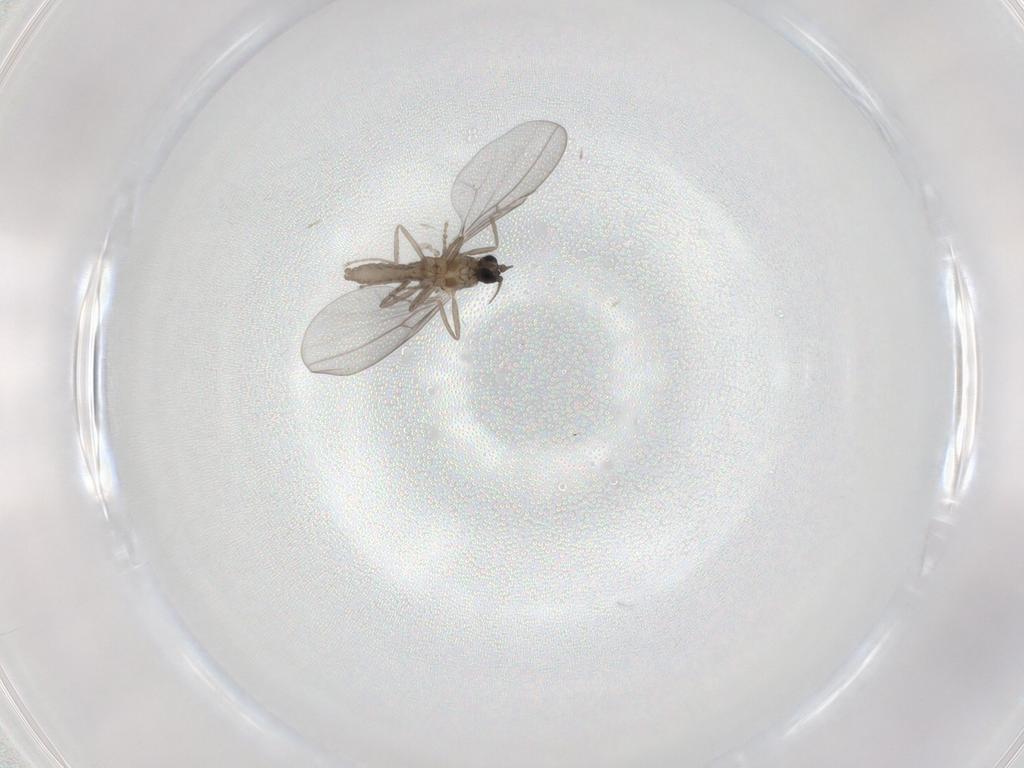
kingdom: Animalia
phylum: Arthropoda
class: Insecta
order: Diptera
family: Cecidomyiidae
